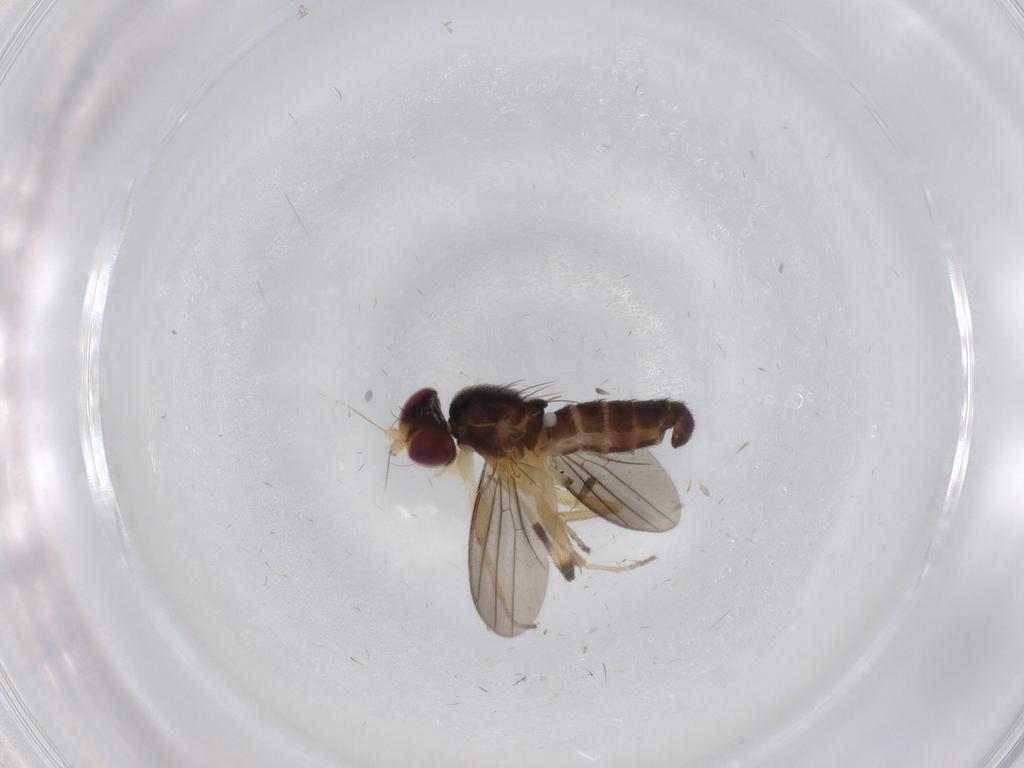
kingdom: Animalia
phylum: Arthropoda
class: Insecta
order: Diptera
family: Clusiidae
